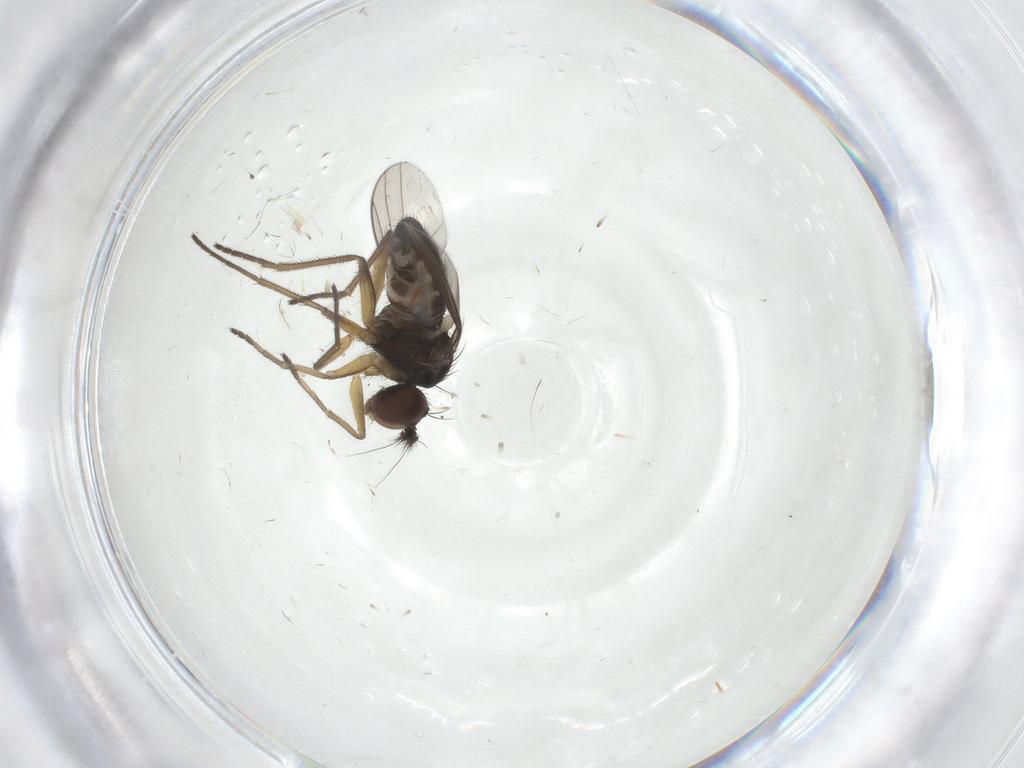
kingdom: Animalia
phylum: Arthropoda
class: Insecta
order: Diptera
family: Dolichopodidae
